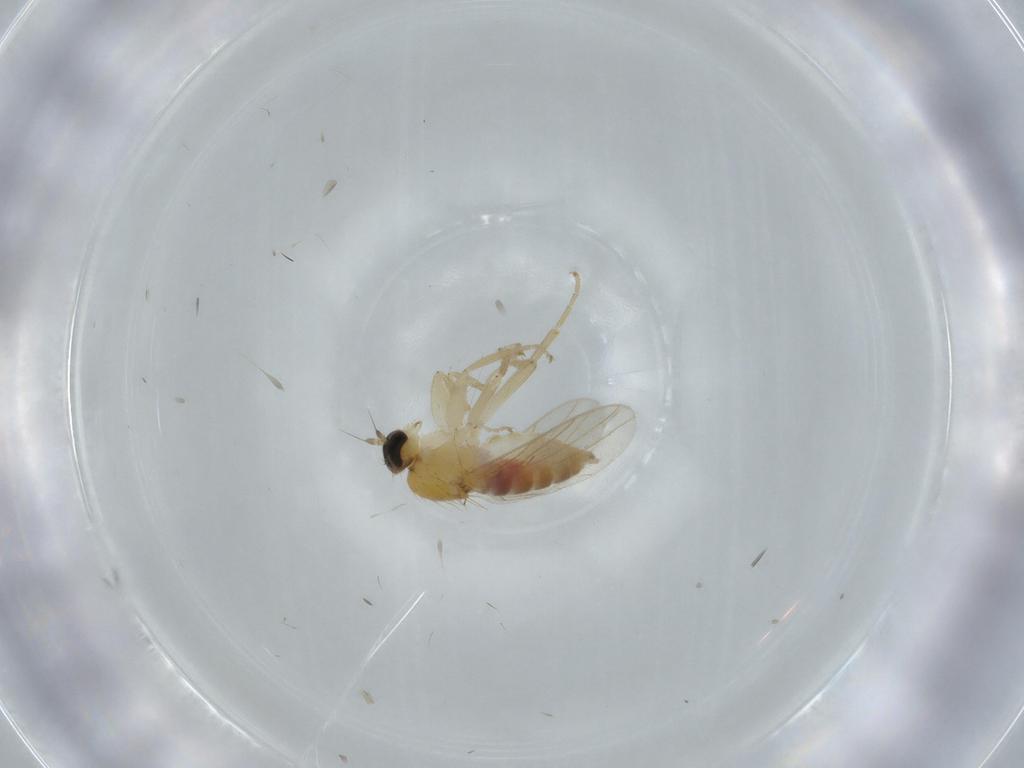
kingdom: Animalia
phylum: Arthropoda
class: Insecta
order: Diptera
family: Hybotidae
